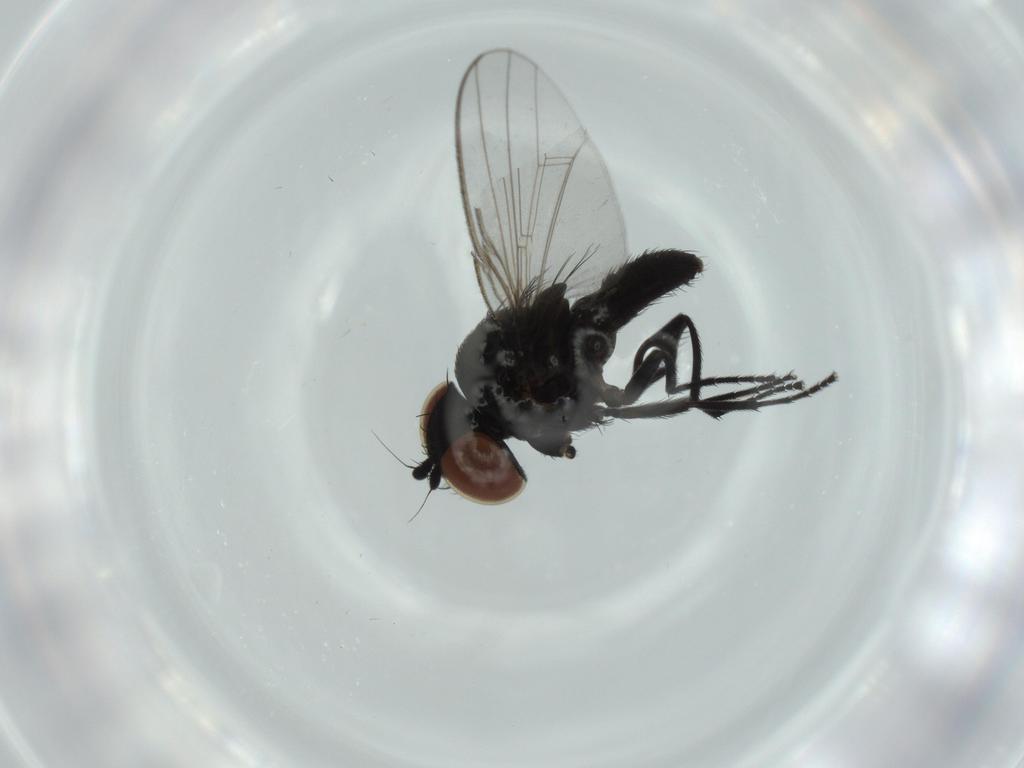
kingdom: Animalia
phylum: Arthropoda
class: Insecta
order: Diptera
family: Milichiidae
